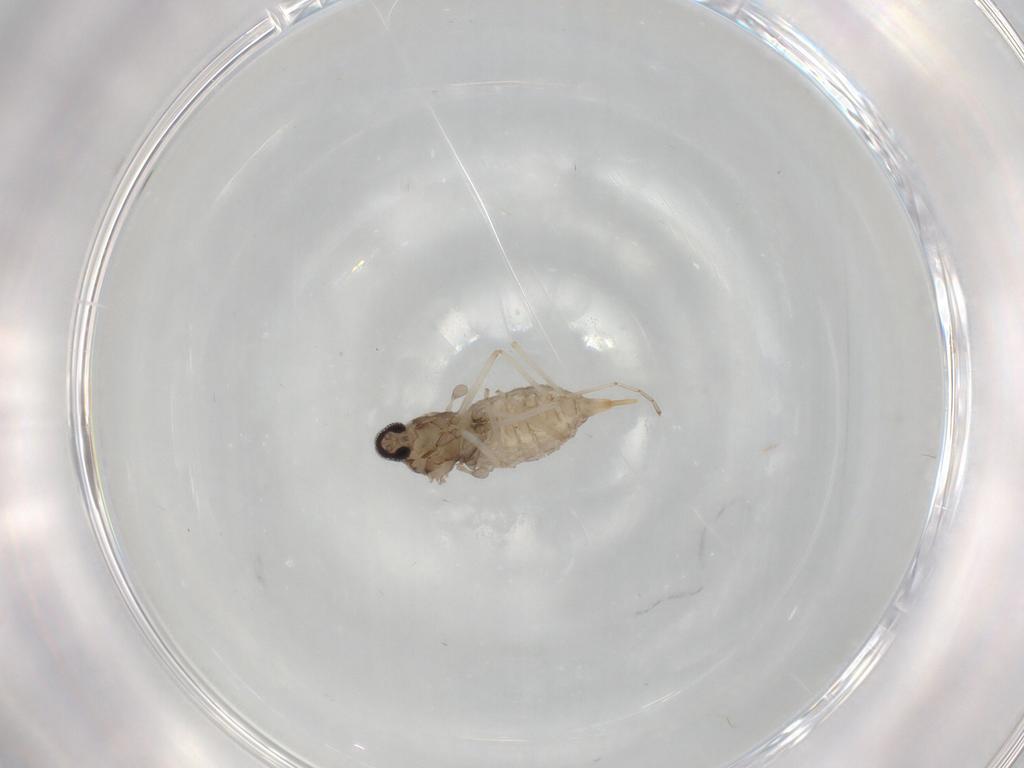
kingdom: Animalia
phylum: Arthropoda
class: Insecta
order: Diptera
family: Cecidomyiidae
